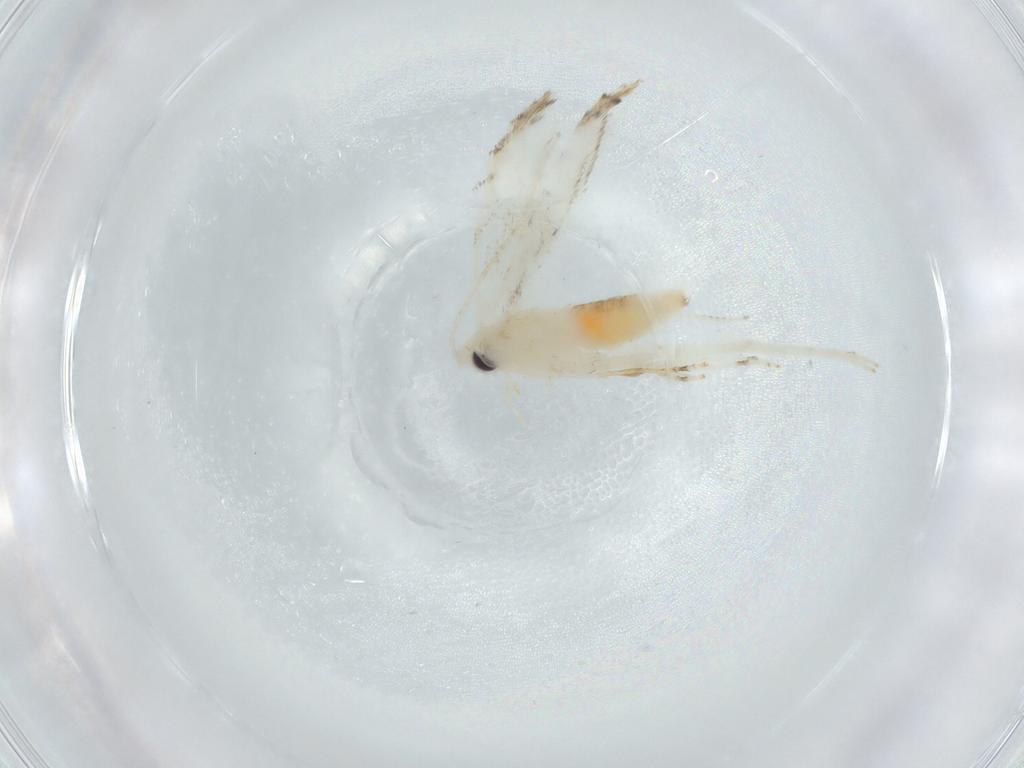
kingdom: Animalia
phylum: Arthropoda
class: Insecta
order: Lepidoptera
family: Tineidae
